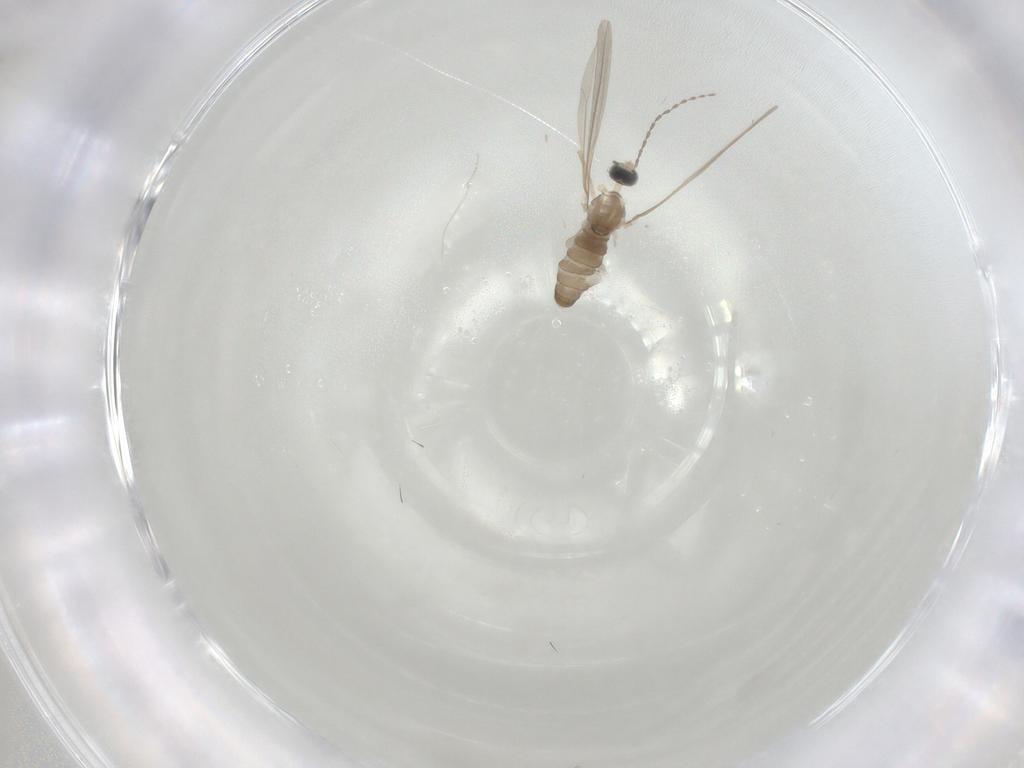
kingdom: Animalia
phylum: Arthropoda
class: Insecta
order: Diptera
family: Cecidomyiidae
